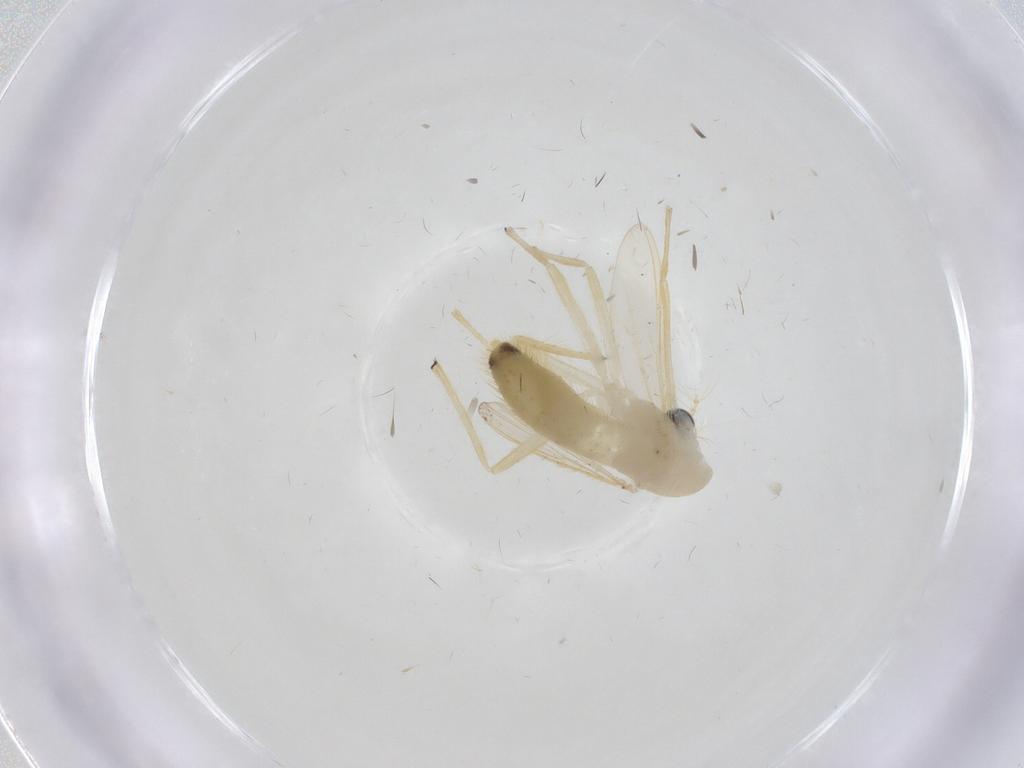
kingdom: Animalia
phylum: Arthropoda
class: Insecta
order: Diptera
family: Chironomidae
